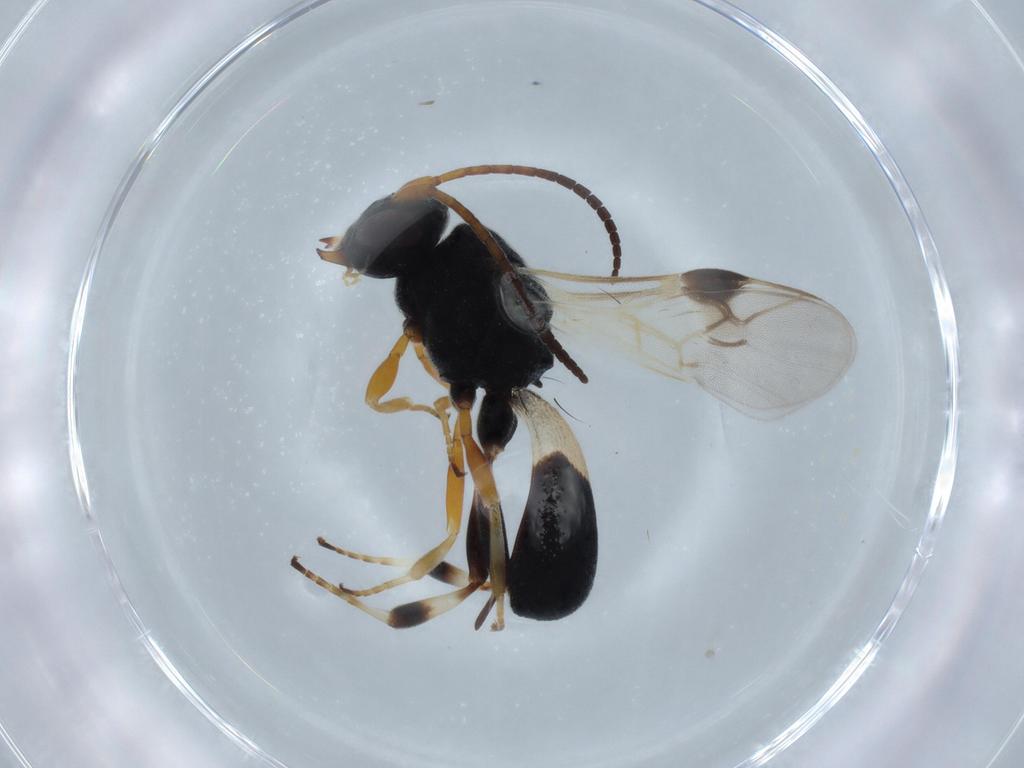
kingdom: Animalia
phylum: Arthropoda
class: Insecta
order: Hymenoptera
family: Braconidae
